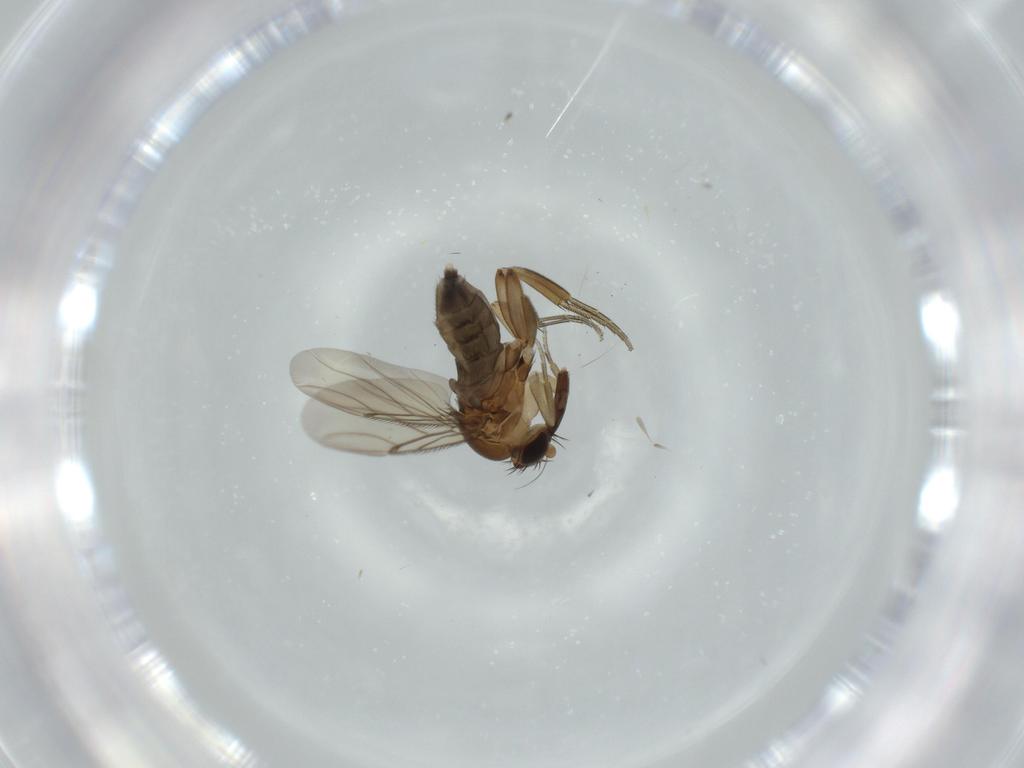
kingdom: Animalia
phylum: Arthropoda
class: Insecta
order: Diptera
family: Phoridae
